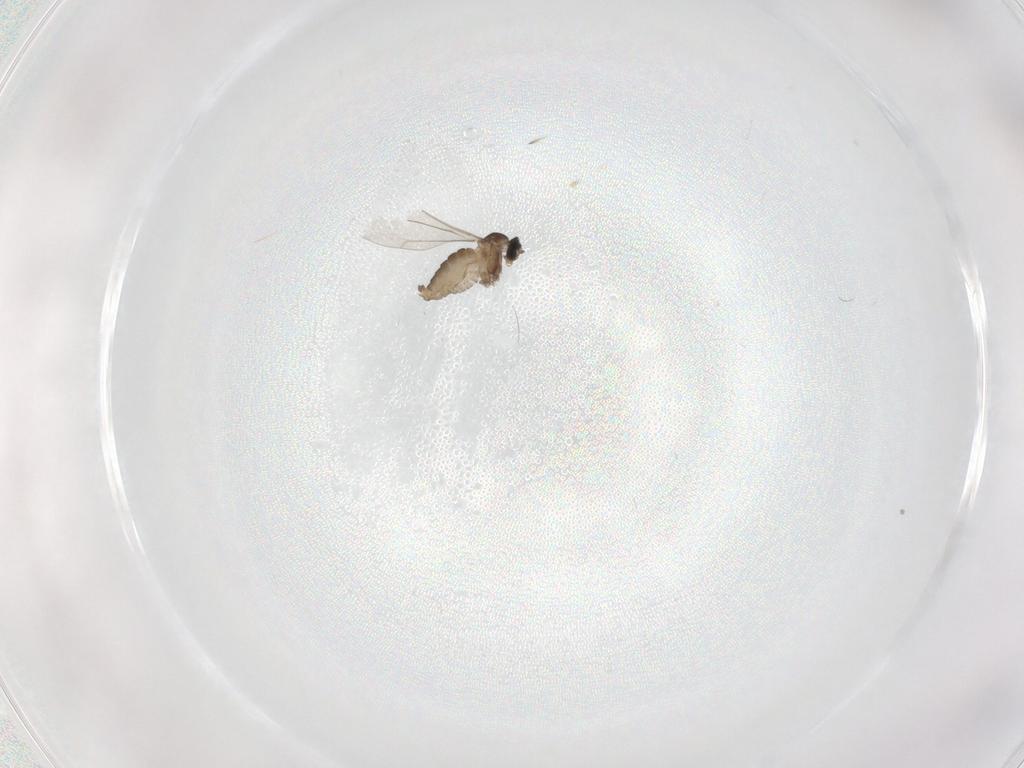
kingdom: Animalia
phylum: Arthropoda
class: Insecta
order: Diptera
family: Cecidomyiidae
